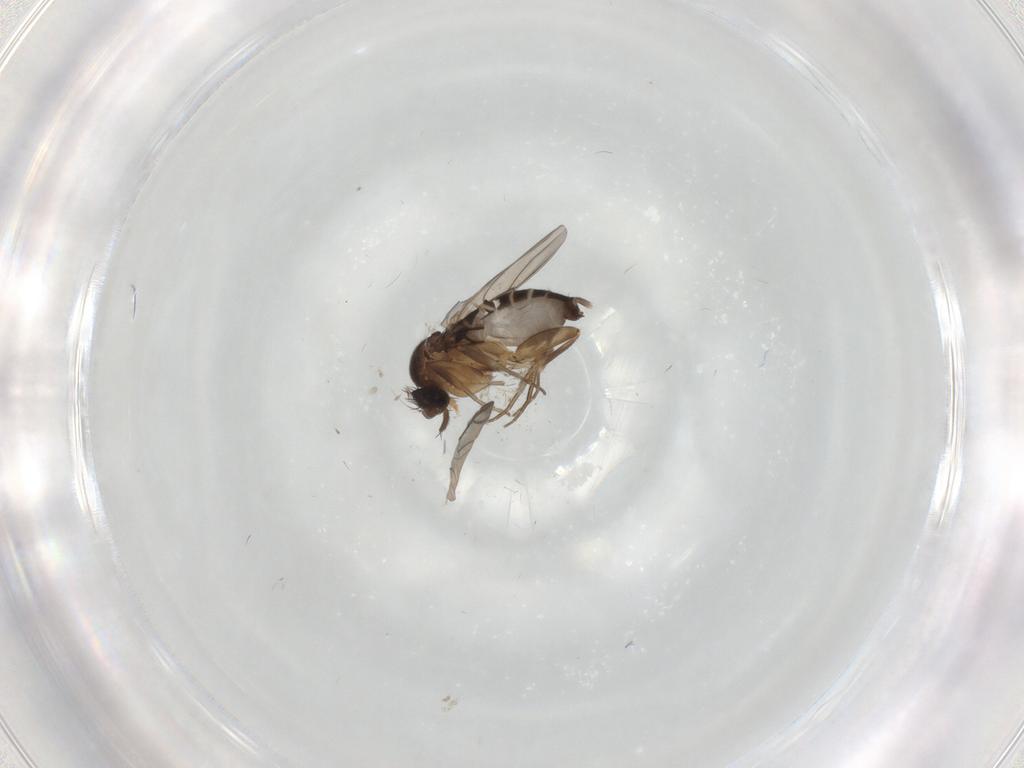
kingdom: Animalia
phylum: Arthropoda
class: Insecta
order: Diptera
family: Phoridae
